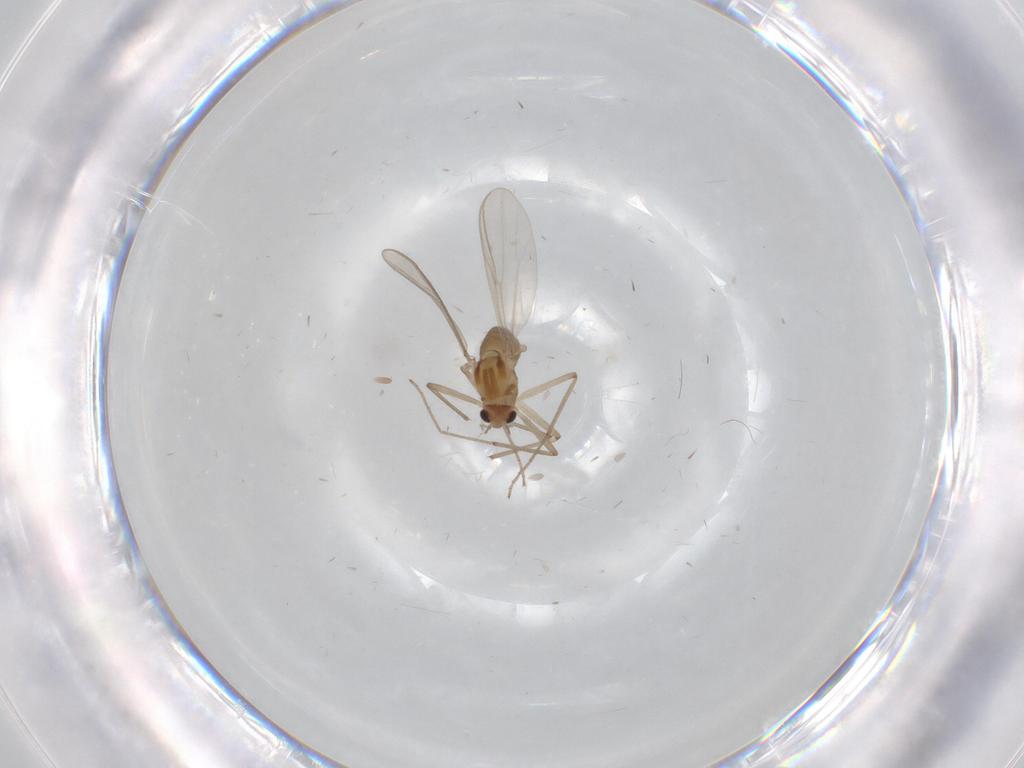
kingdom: Animalia
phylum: Arthropoda
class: Insecta
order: Diptera
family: Chironomidae
